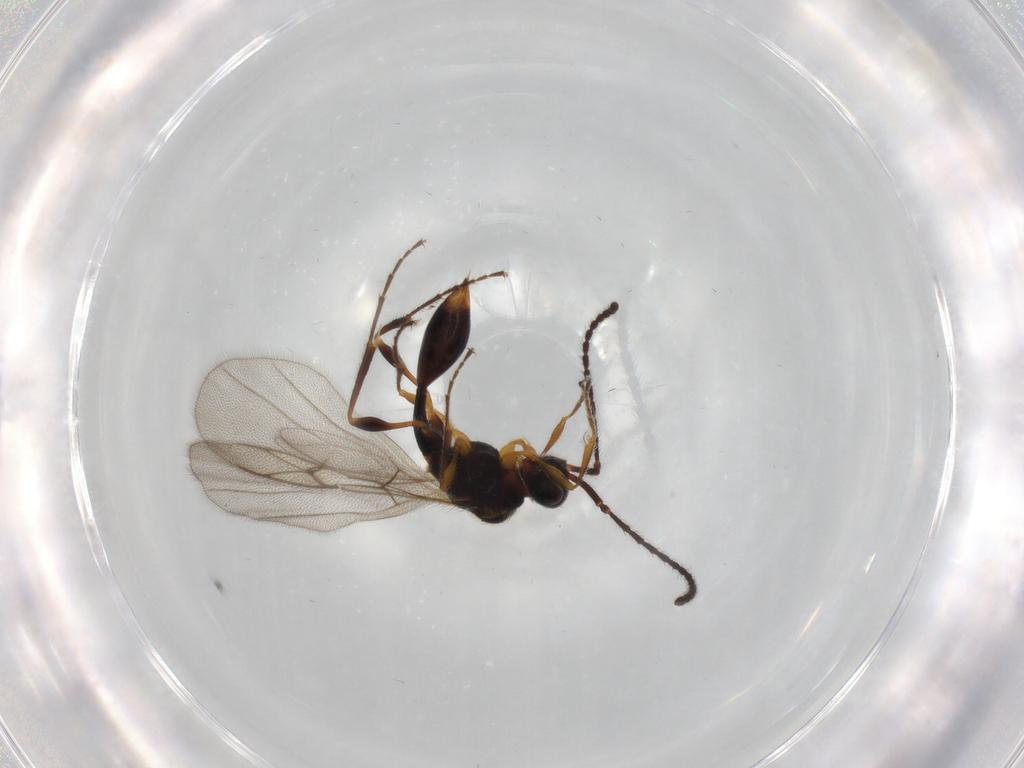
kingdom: Animalia
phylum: Arthropoda
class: Insecta
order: Hymenoptera
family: Diapriidae
